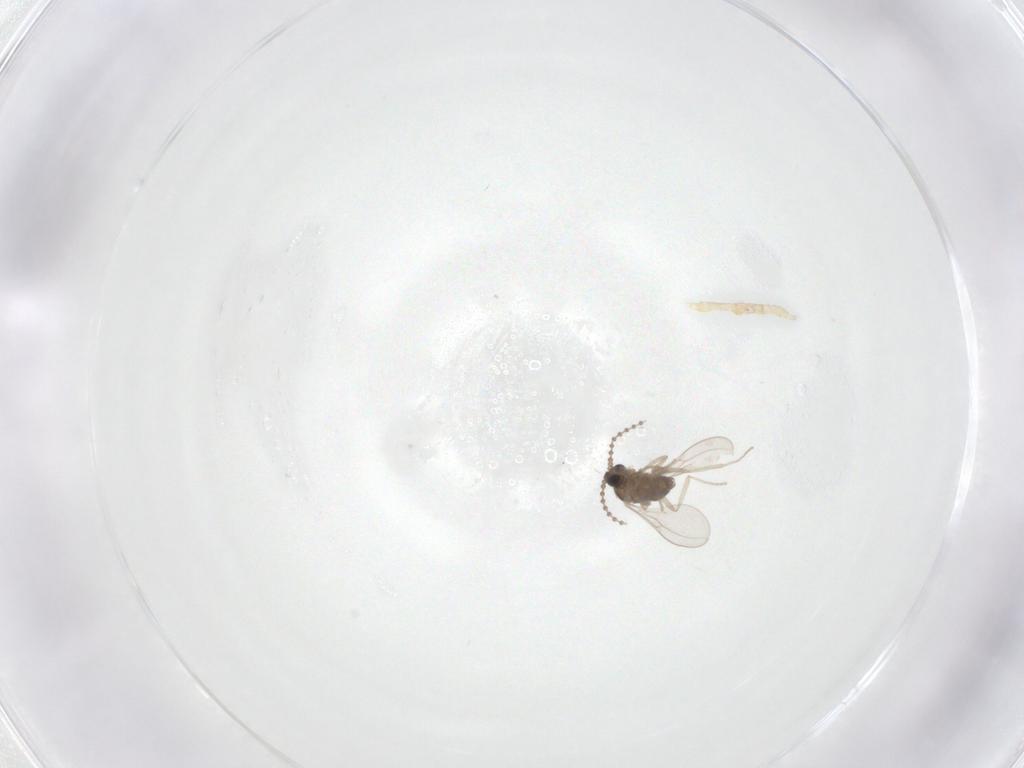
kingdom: Animalia
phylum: Arthropoda
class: Insecta
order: Diptera
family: Cecidomyiidae
